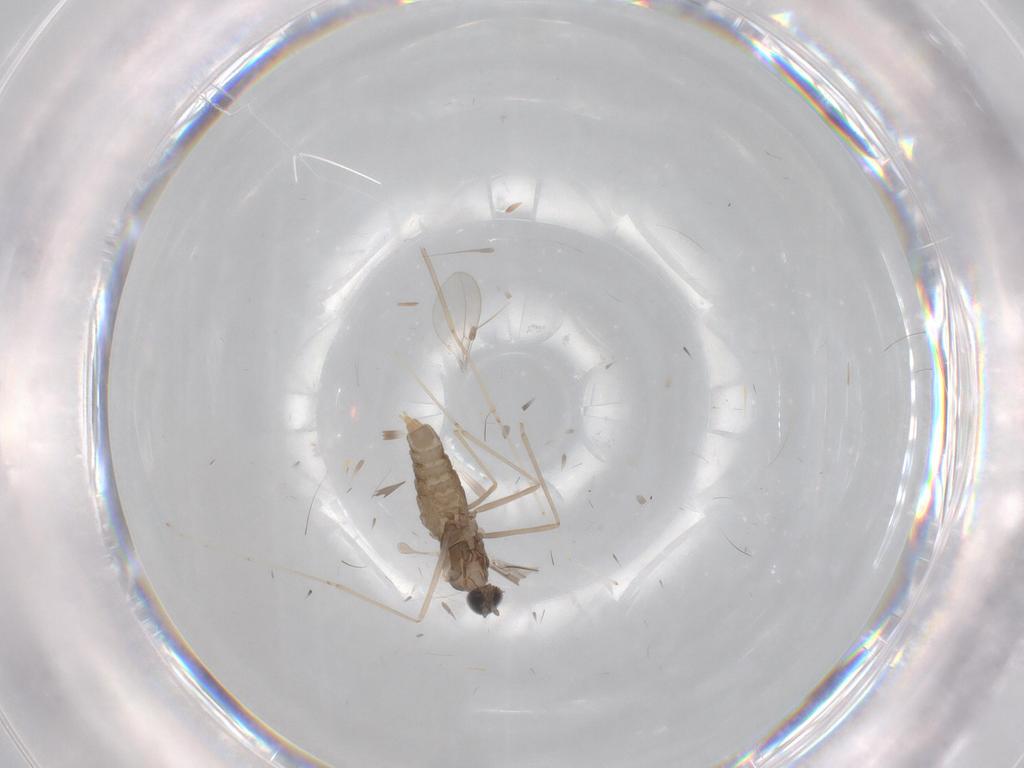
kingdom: Animalia
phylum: Arthropoda
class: Insecta
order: Diptera
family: Cecidomyiidae
